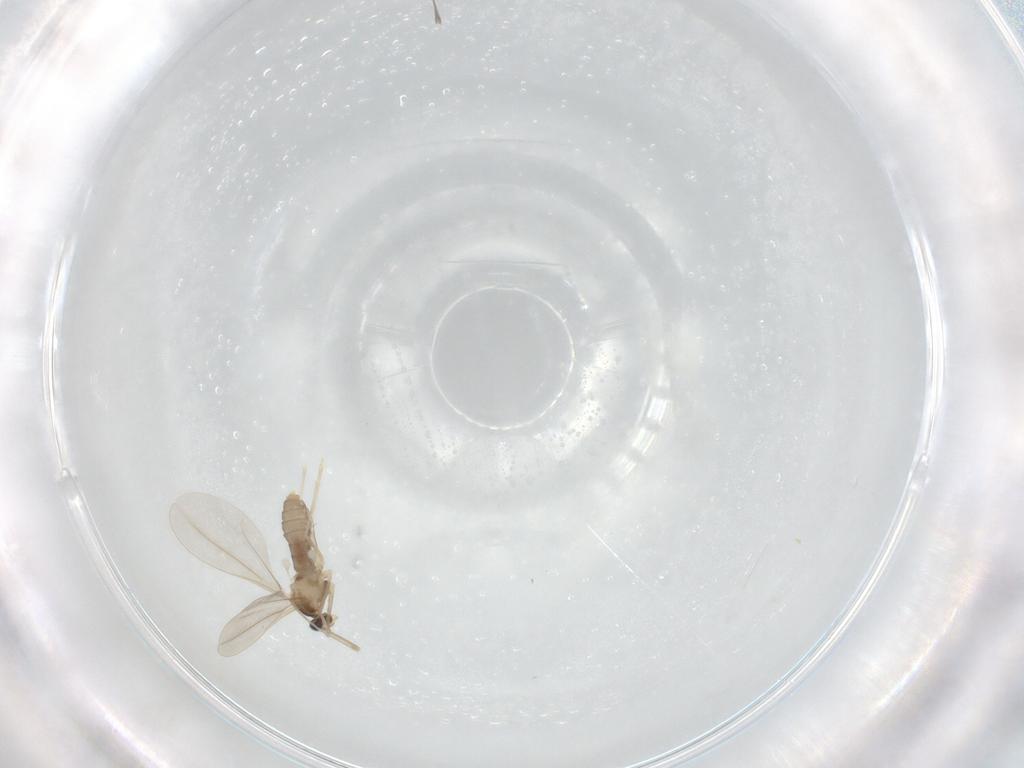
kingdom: Animalia
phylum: Arthropoda
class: Insecta
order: Diptera
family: Cecidomyiidae
